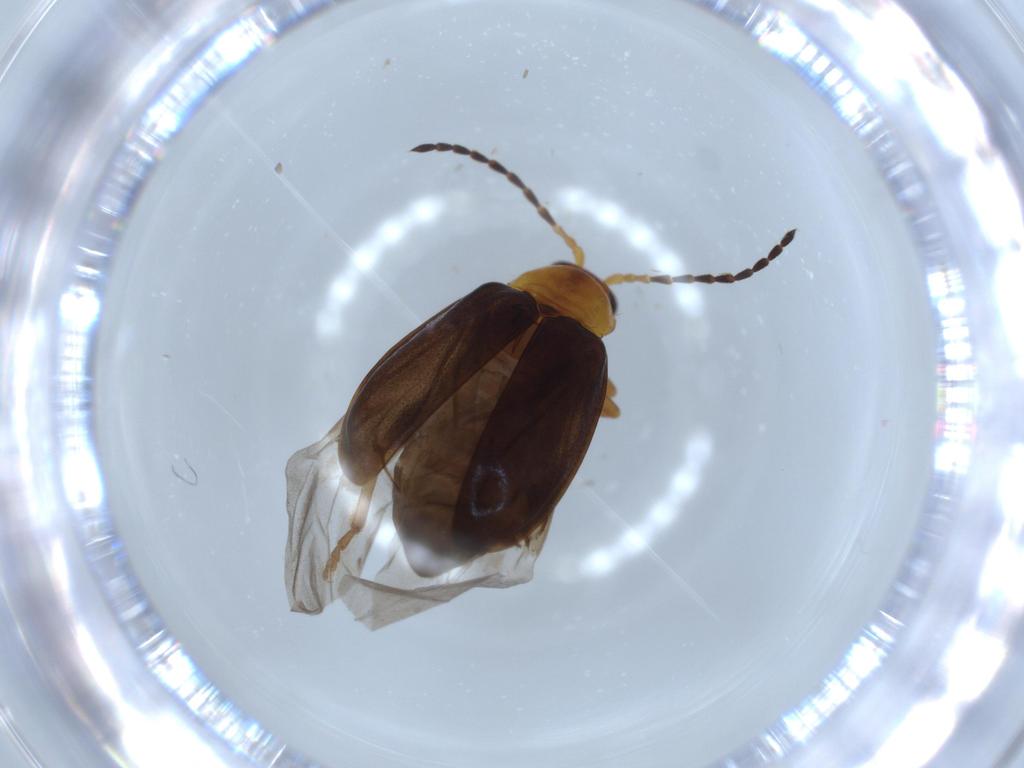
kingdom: Animalia
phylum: Arthropoda
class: Insecta
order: Coleoptera
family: Chrysomelidae
